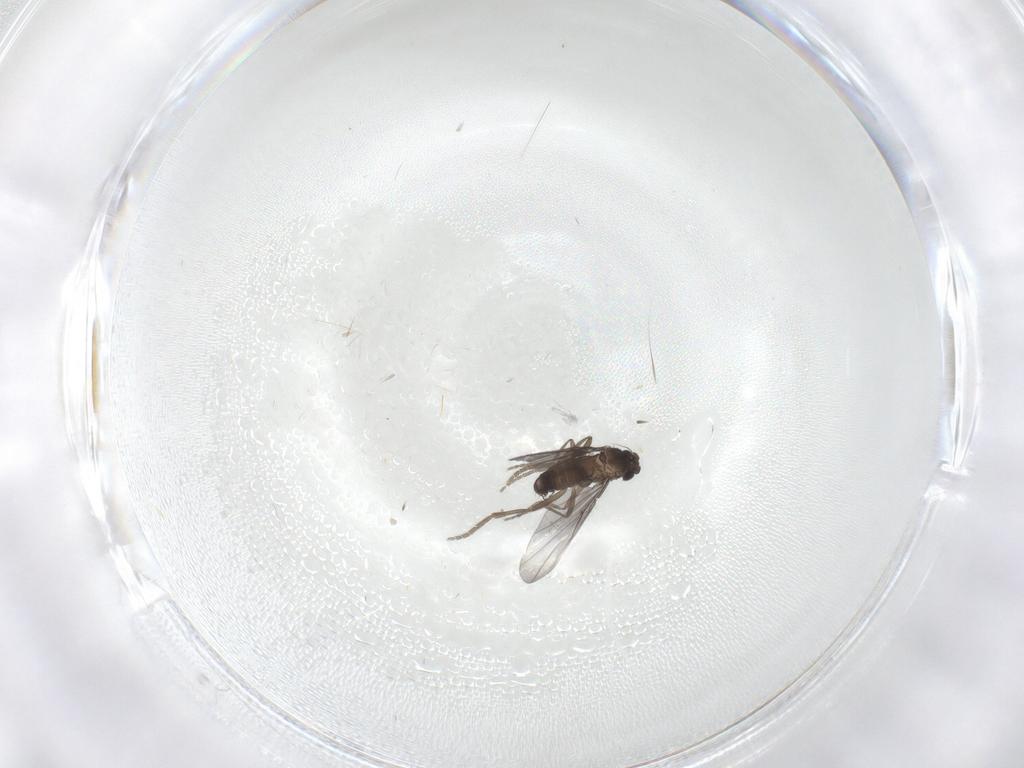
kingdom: Animalia
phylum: Arthropoda
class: Insecta
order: Diptera
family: Phoridae
